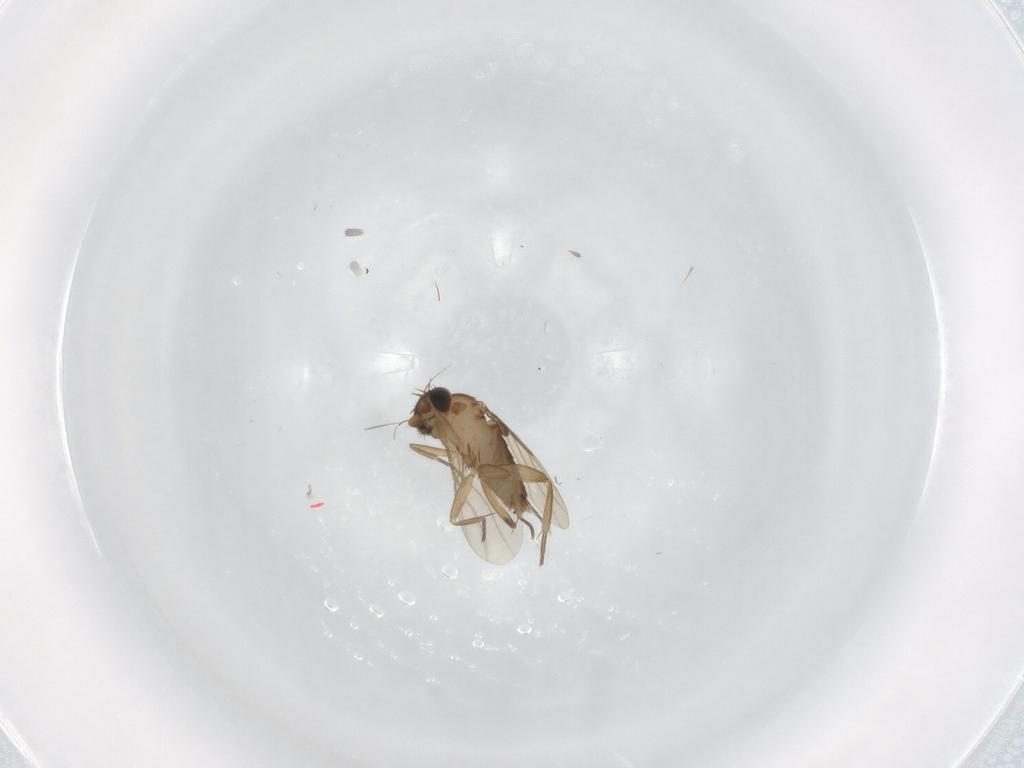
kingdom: Animalia
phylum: Arthropoda
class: Insecta
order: Diptera
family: Phoridae
